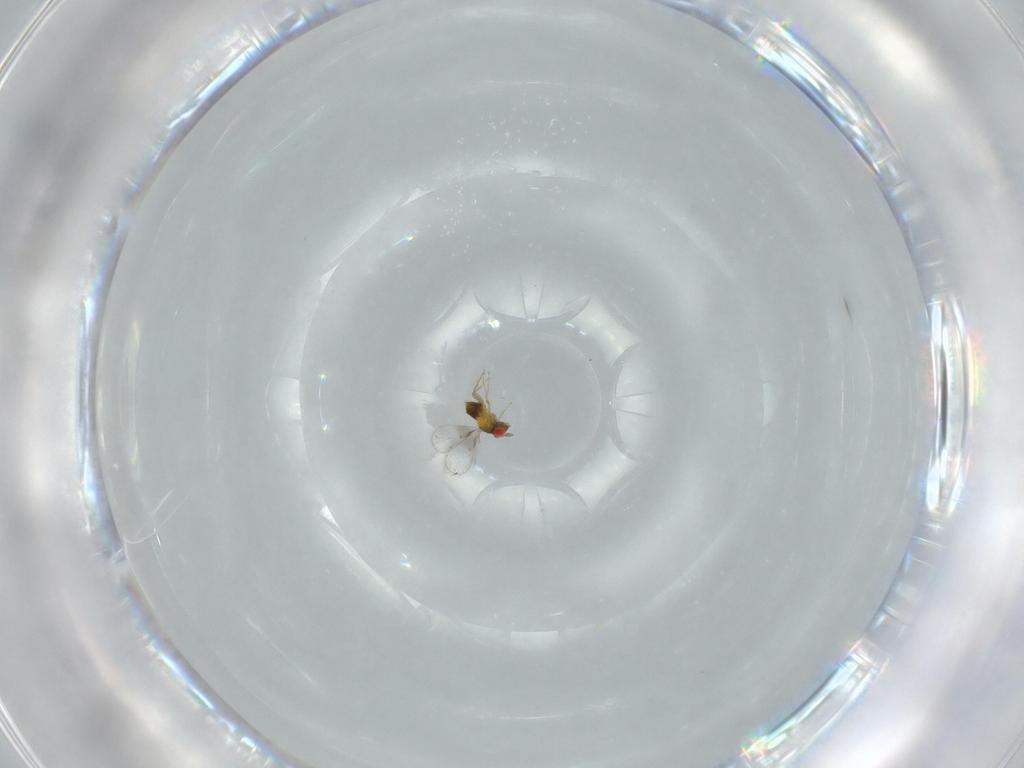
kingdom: Animalia
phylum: Arthropoda
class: Insecta
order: Hymenoptera
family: Trichogrammatidae
